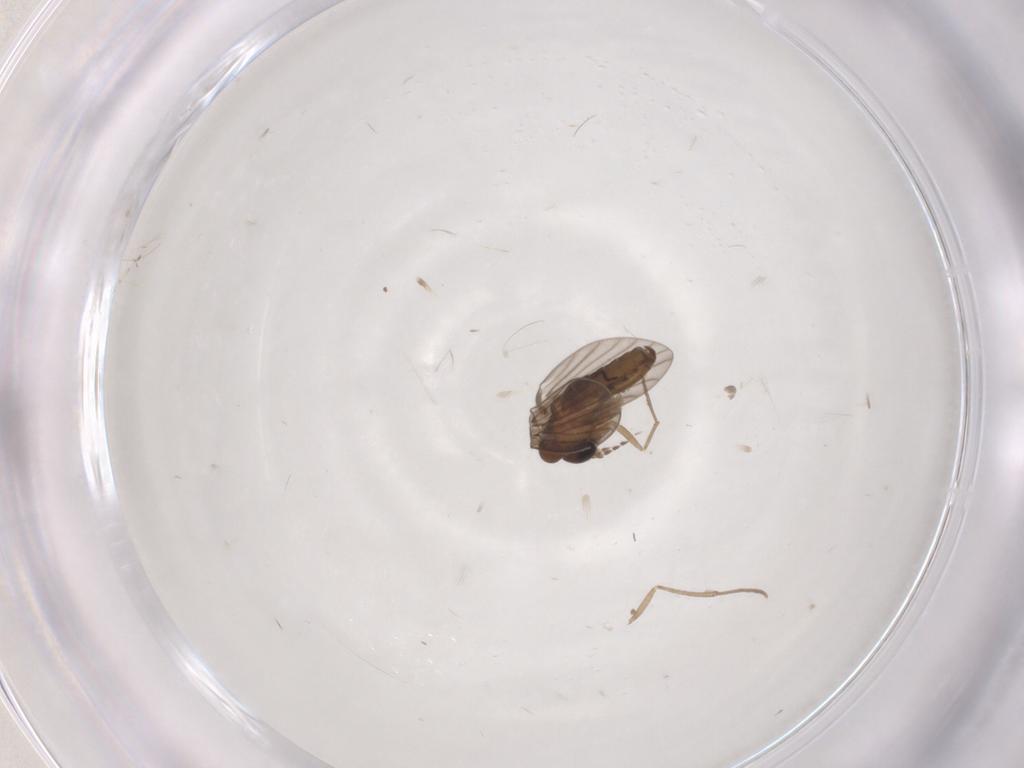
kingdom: Animalia
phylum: Arthropoda
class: Insecta
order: Diptera
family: Psychodidae
